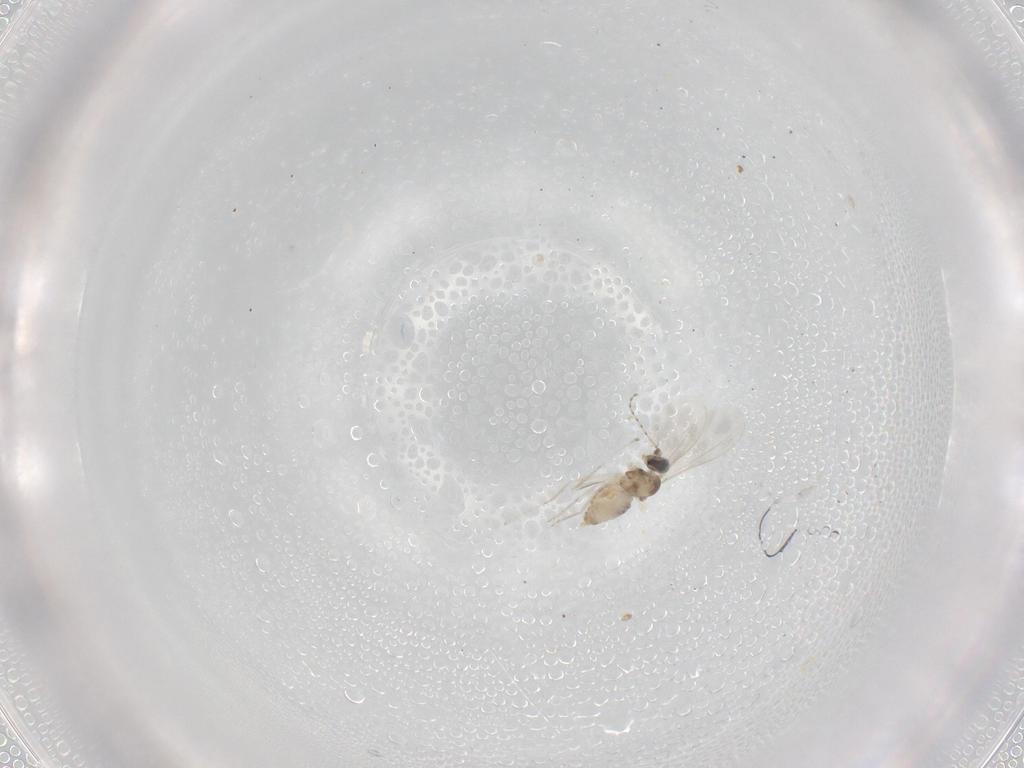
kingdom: Animalia
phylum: Arthropoda
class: Insecta
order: Diptera
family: Cecidomyiidae
